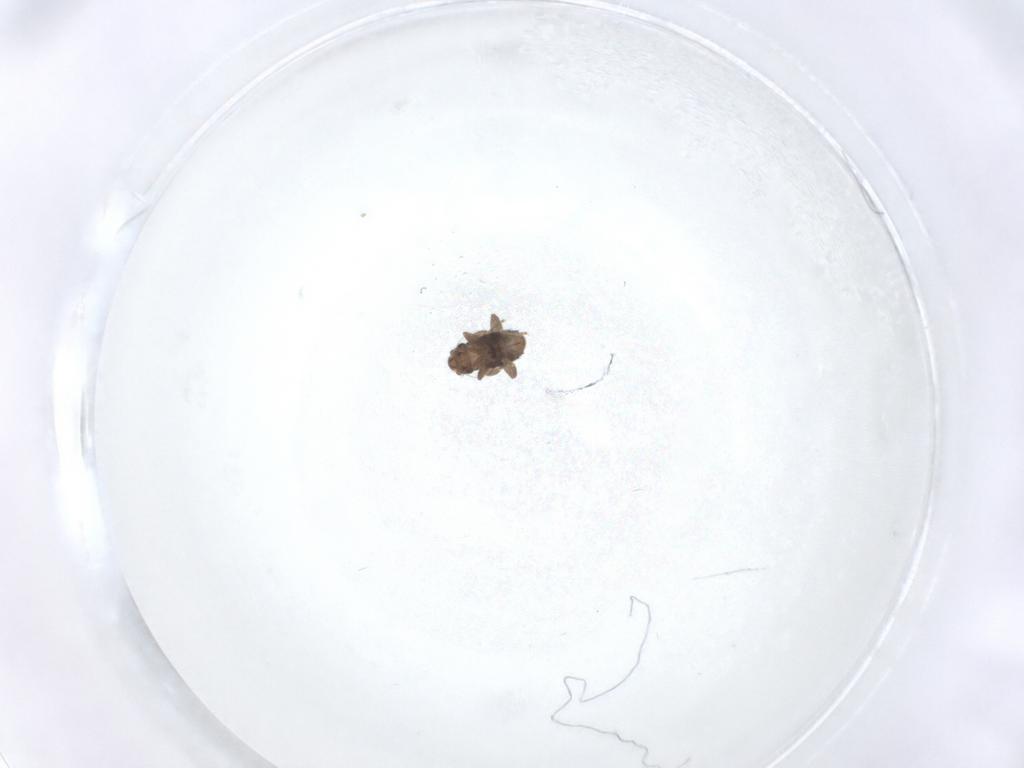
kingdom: Animalia
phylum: Arthropoda
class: Insecta
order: Diptera
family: Phoridae
